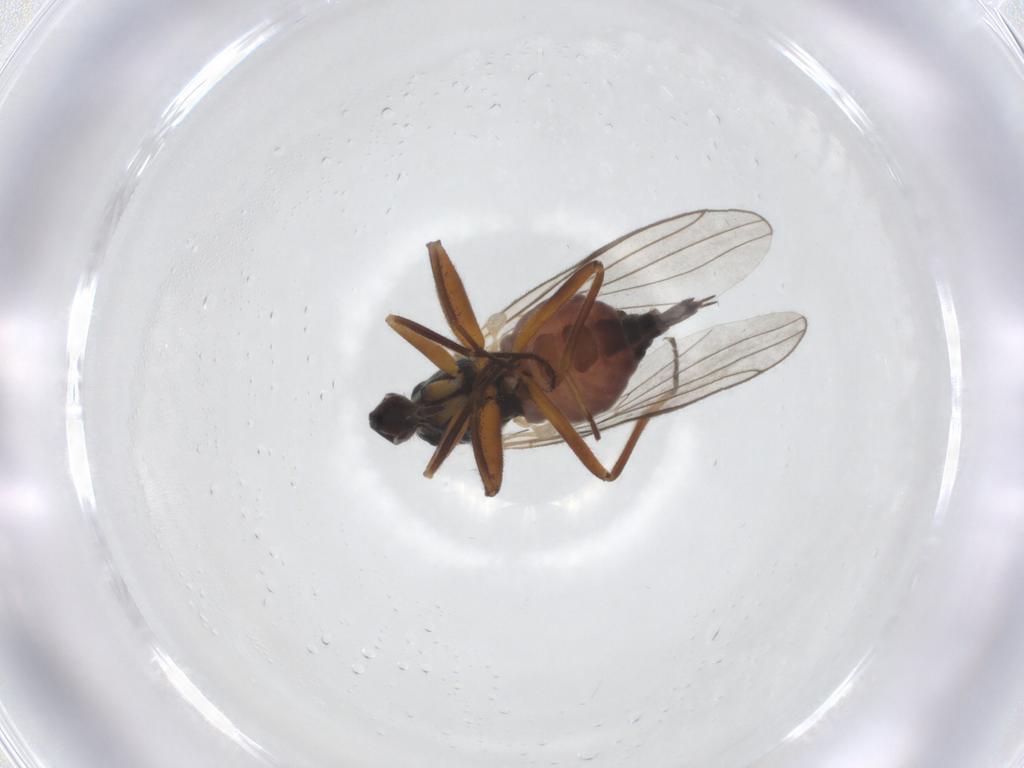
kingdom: Animalia
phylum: Arthropoda
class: Insecta
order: Diptera
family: Hybotidae
